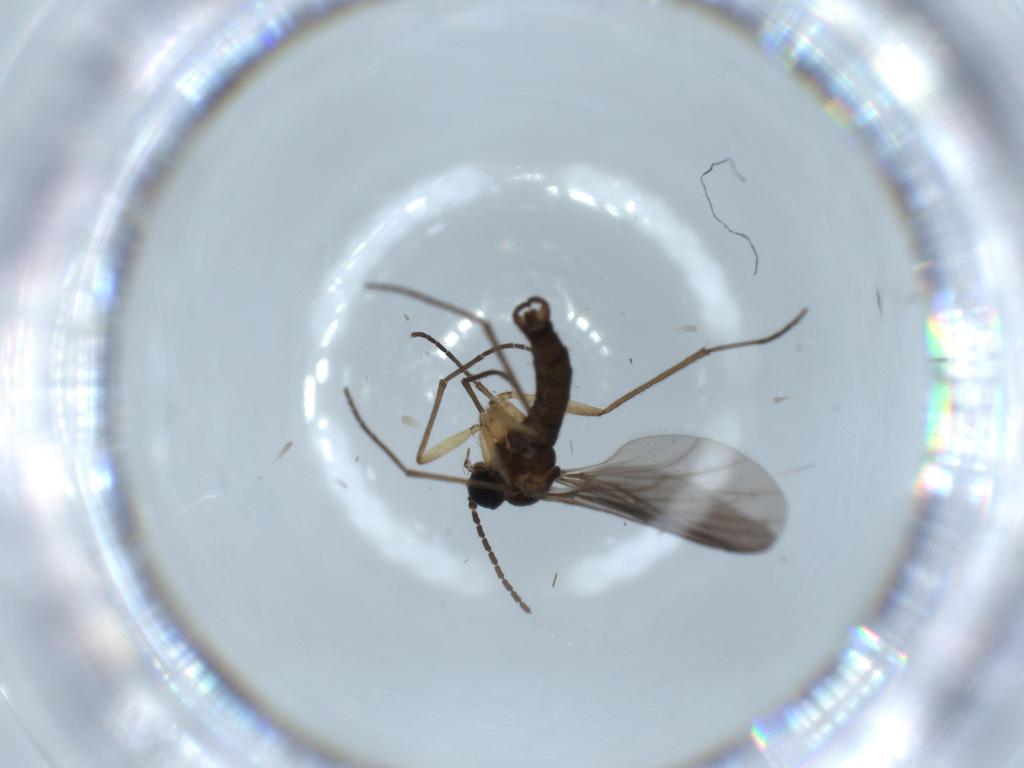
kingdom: Animalia
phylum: Arthropoda
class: Insecta
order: Diptera
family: Sciaridae
